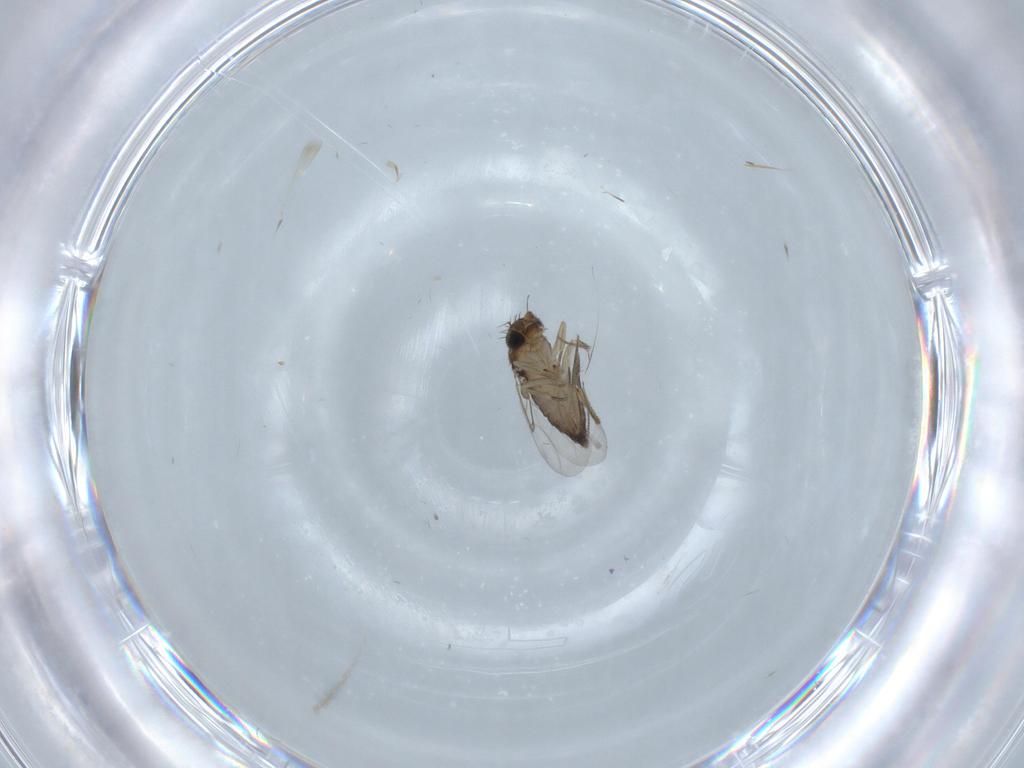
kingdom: Animalia
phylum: Arthropoda
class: Insecta
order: Diptera
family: Phoridae
